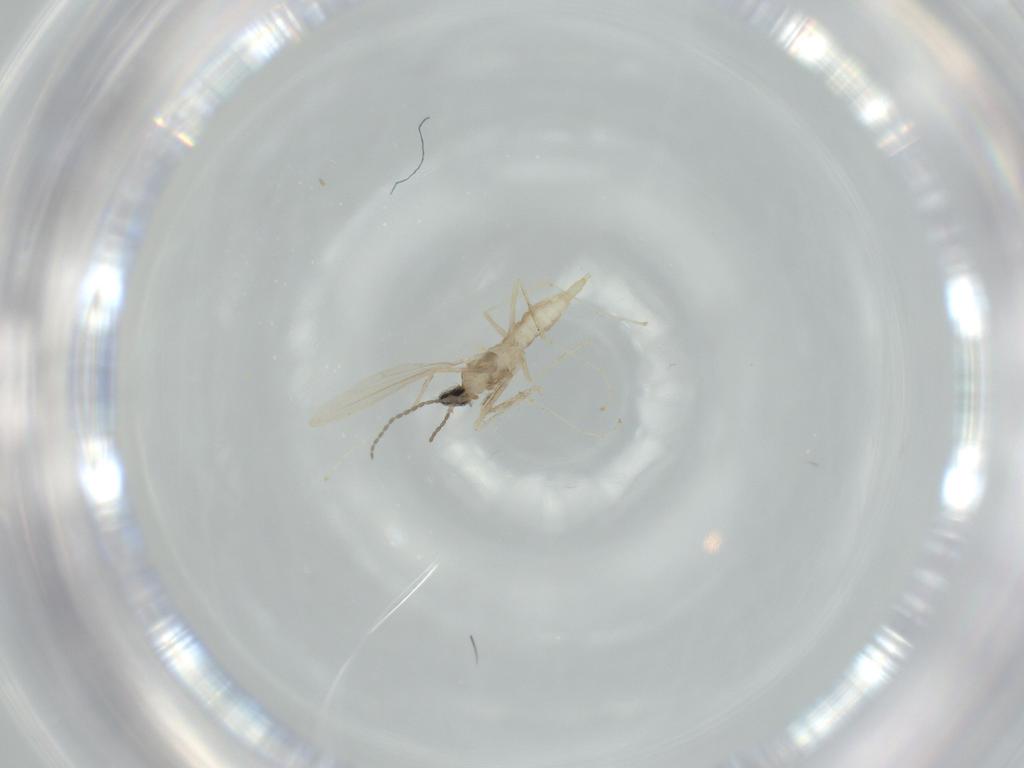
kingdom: Animalia
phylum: Arthropoda
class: Insecta
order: Diptera
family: Cecidomyiidae
